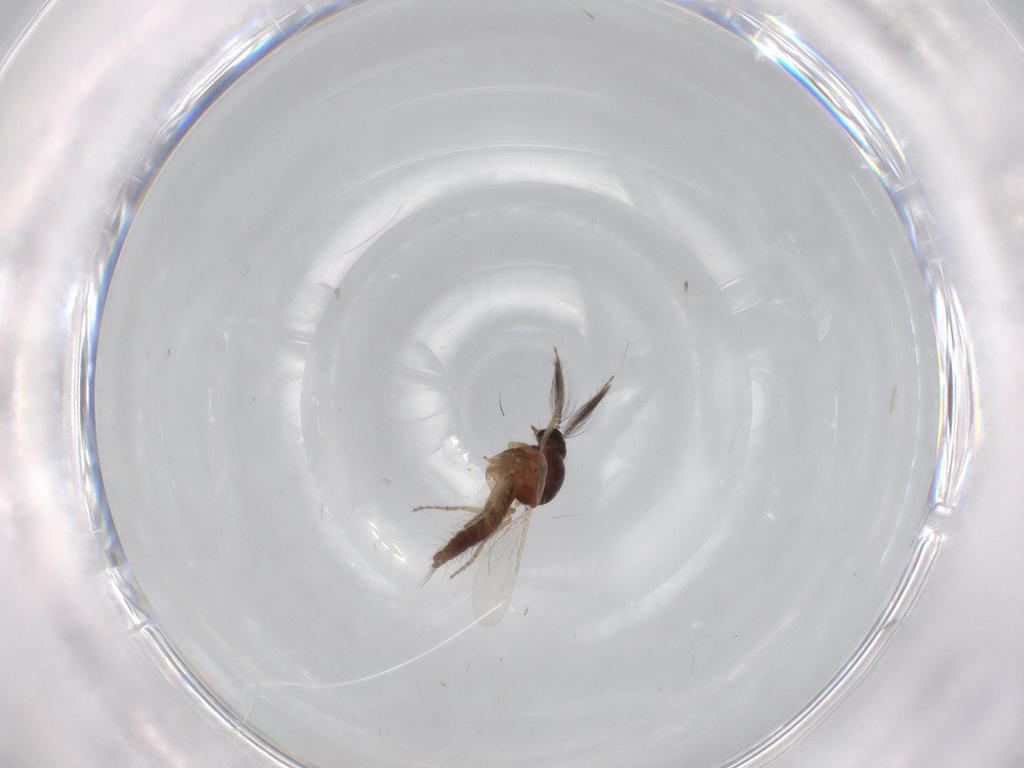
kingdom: Animalia
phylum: Arthropoda
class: Insecta
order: Diptera
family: Ceratopogonidae
